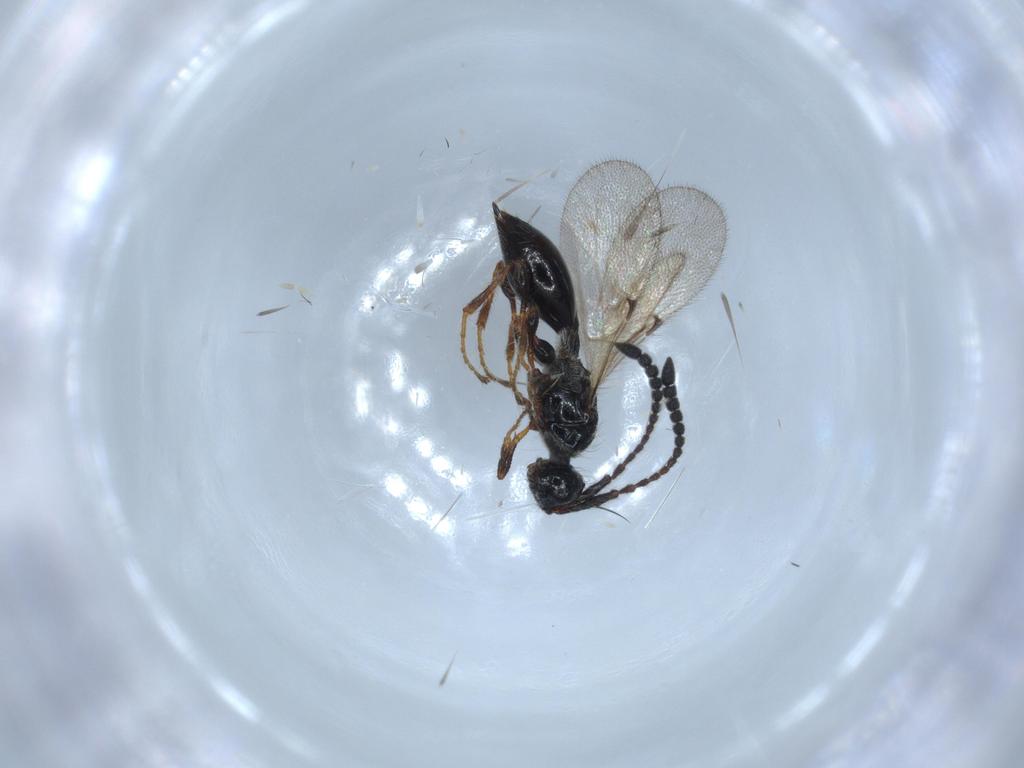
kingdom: Animalia
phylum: Arthropoda
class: Insecta
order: Hymenoptera
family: Diapriidae
